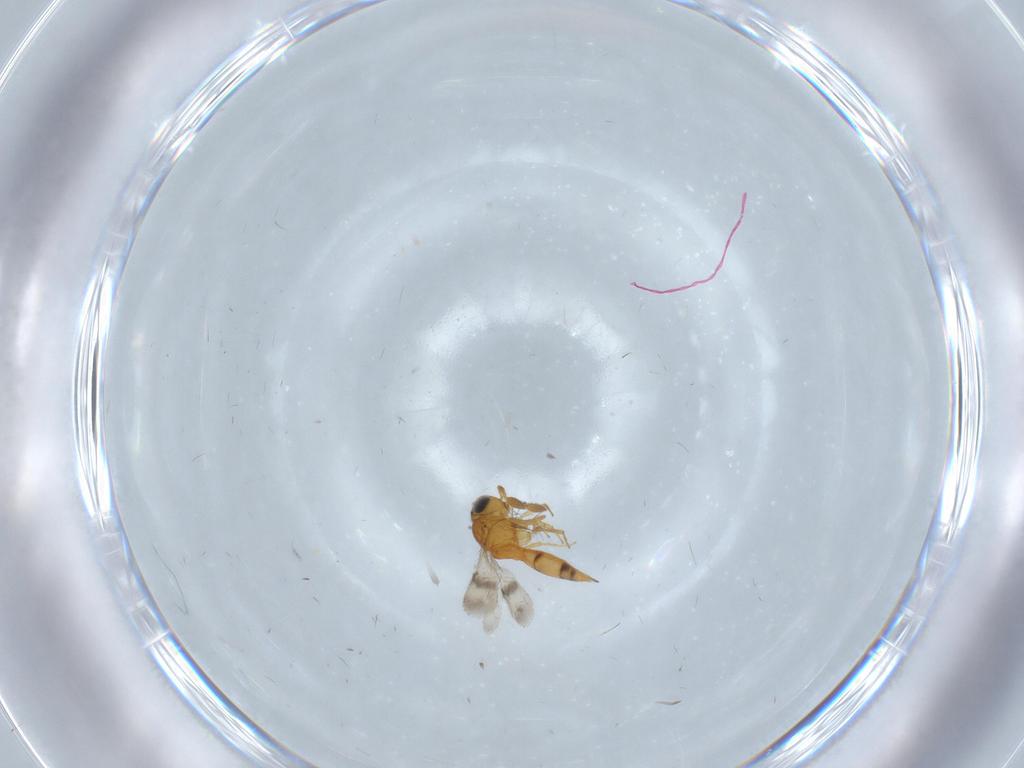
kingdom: Animalia
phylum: Arthropoda
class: Insecta
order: Hymenoptera
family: Scelionidae
